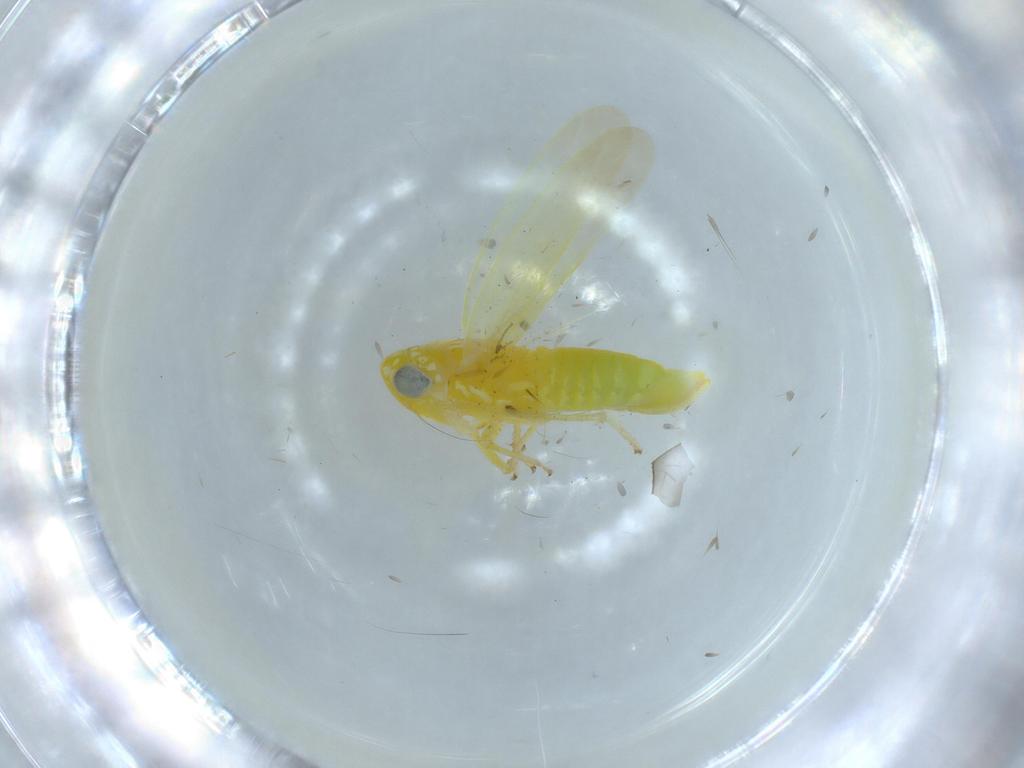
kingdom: Animalia
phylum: Arthropoda
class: Insecta
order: Hemiptera
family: Cicadellidae
